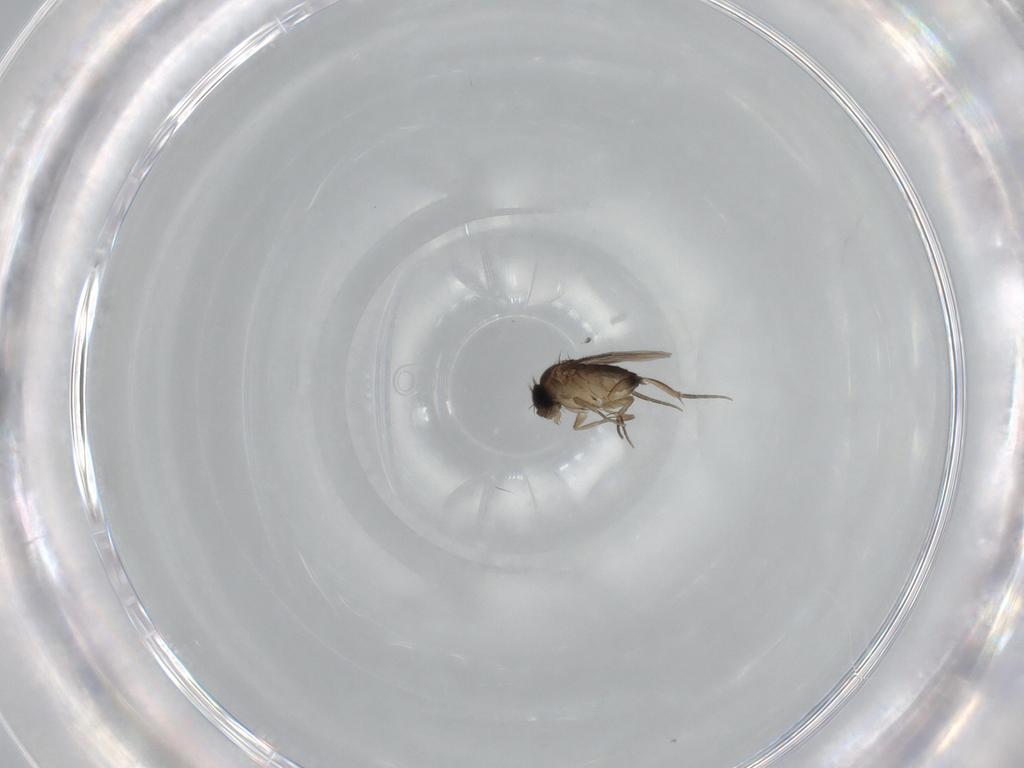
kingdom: Animalia
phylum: Arthropoda
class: Insecta
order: Diptera
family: Phoridae
